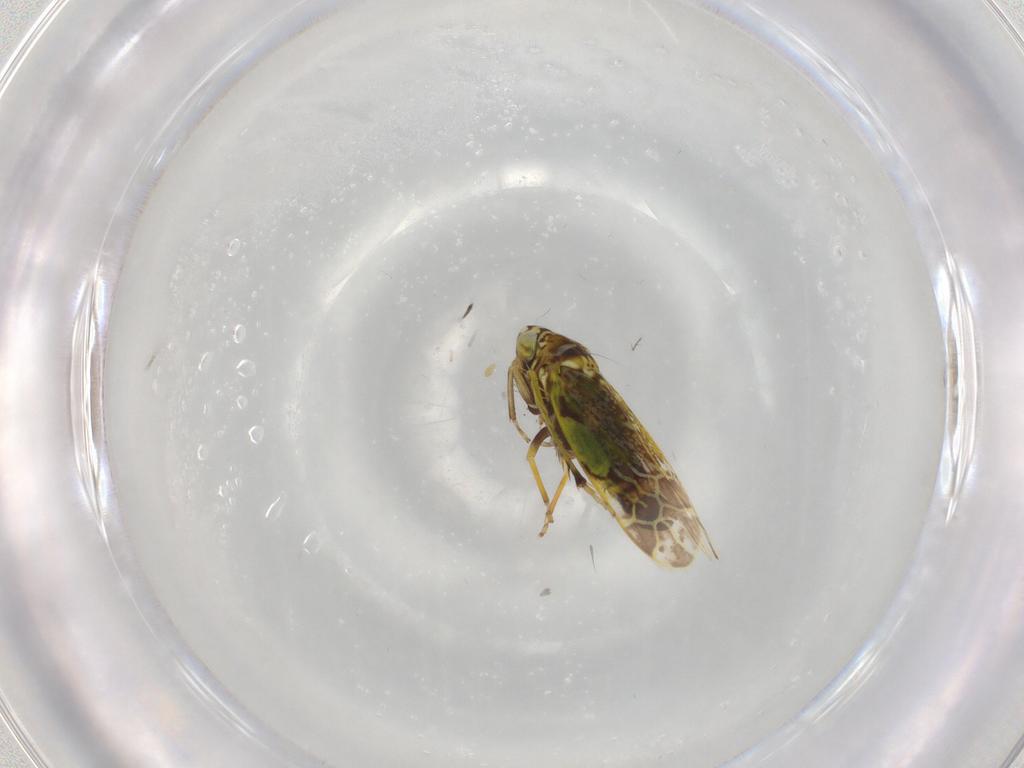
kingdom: Animalia
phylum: Arthropoda
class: Insecta
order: Hemiptera
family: Cicadellidae
